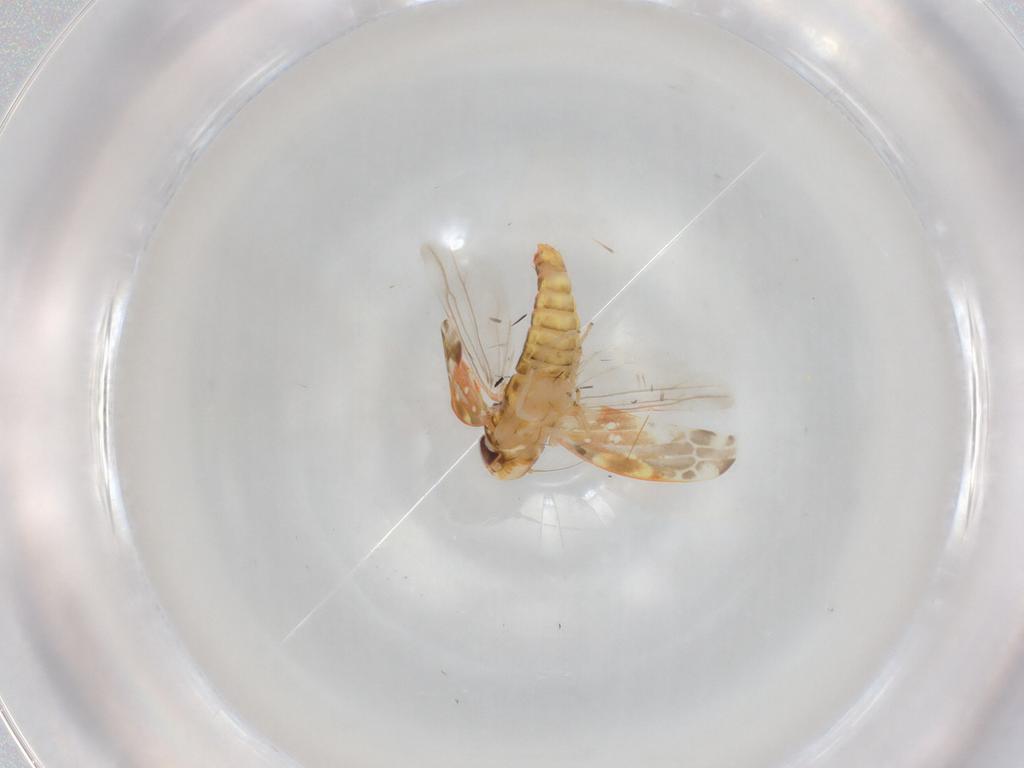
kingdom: Animalia
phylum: Arthropoda
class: Insecta
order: Hemiptera
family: Cicadellidae
